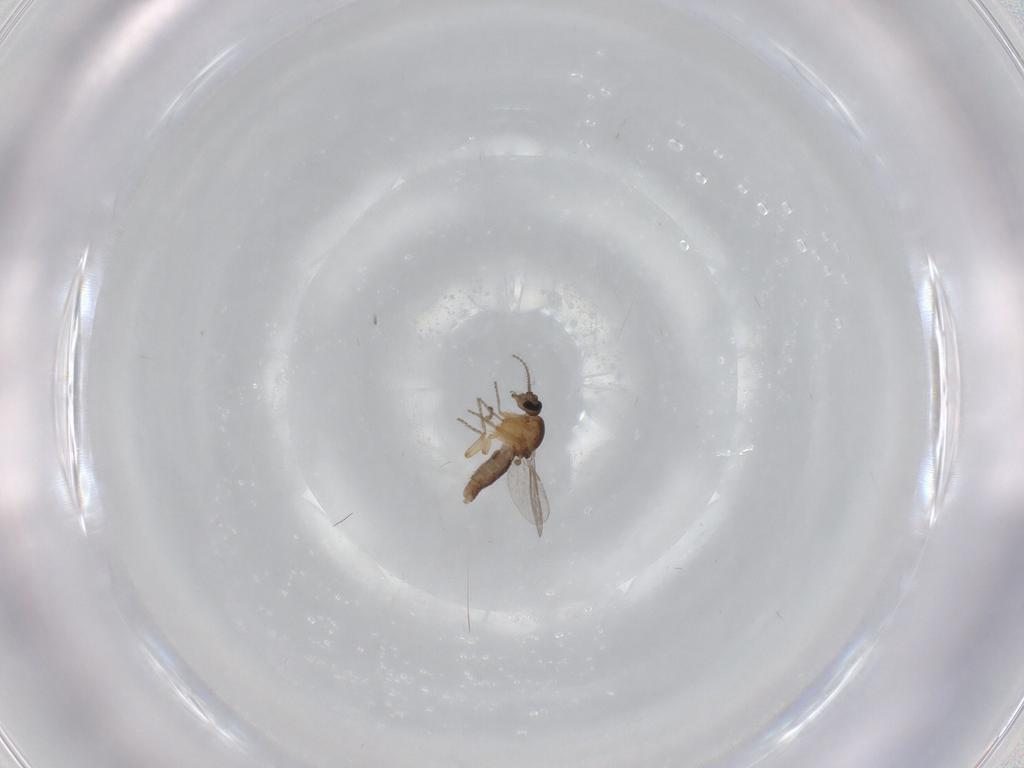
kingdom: Animalia
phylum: Arthropoda
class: Insecta
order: Diptera
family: Ceratopogonidae
